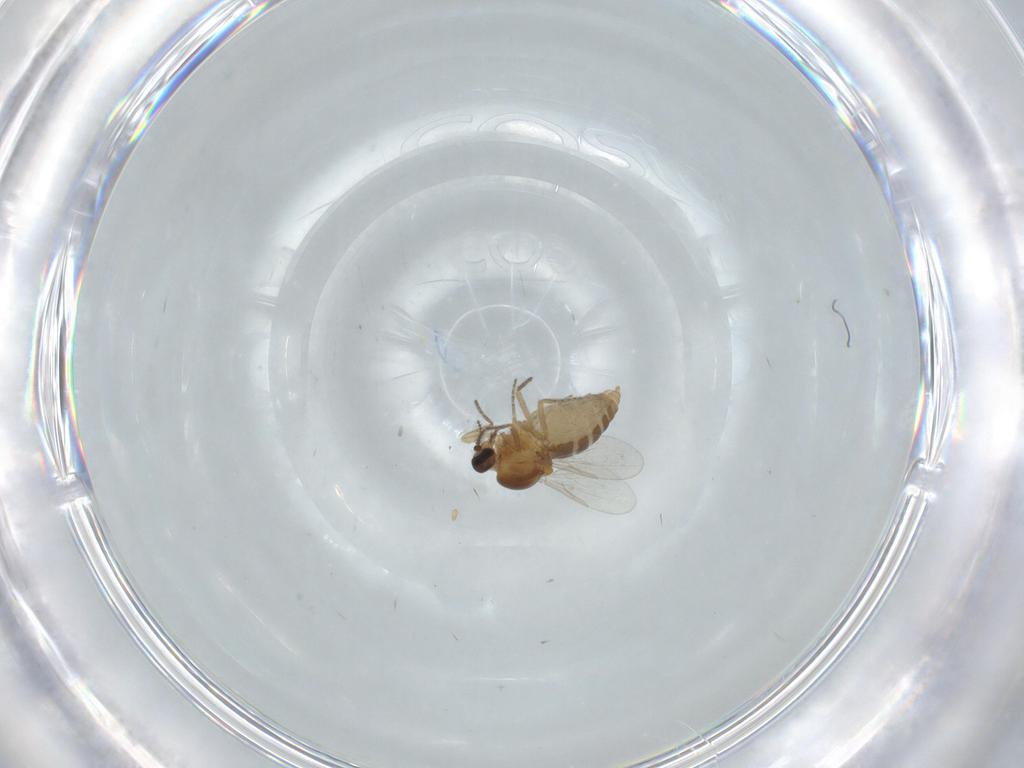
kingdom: Animalia
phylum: Arthropoda
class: Insecta
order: Diptera
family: Ceratopogonidae
